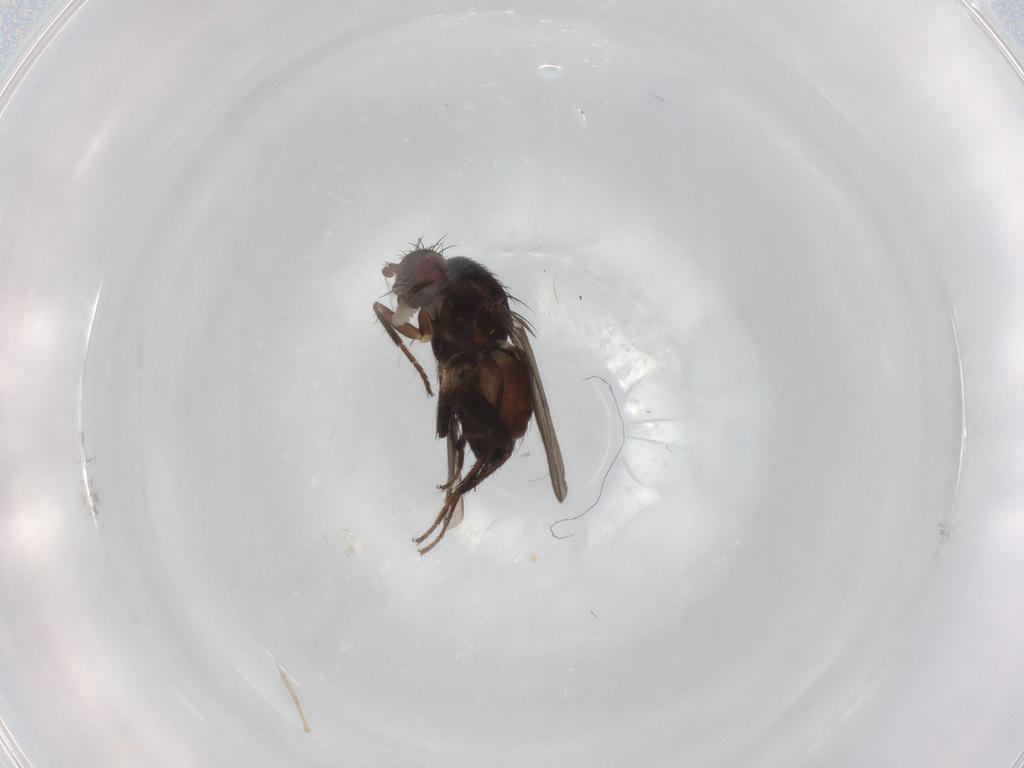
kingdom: Animalia
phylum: Arthropoda
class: Insecta
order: Diptera
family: Sphaeroceridae
